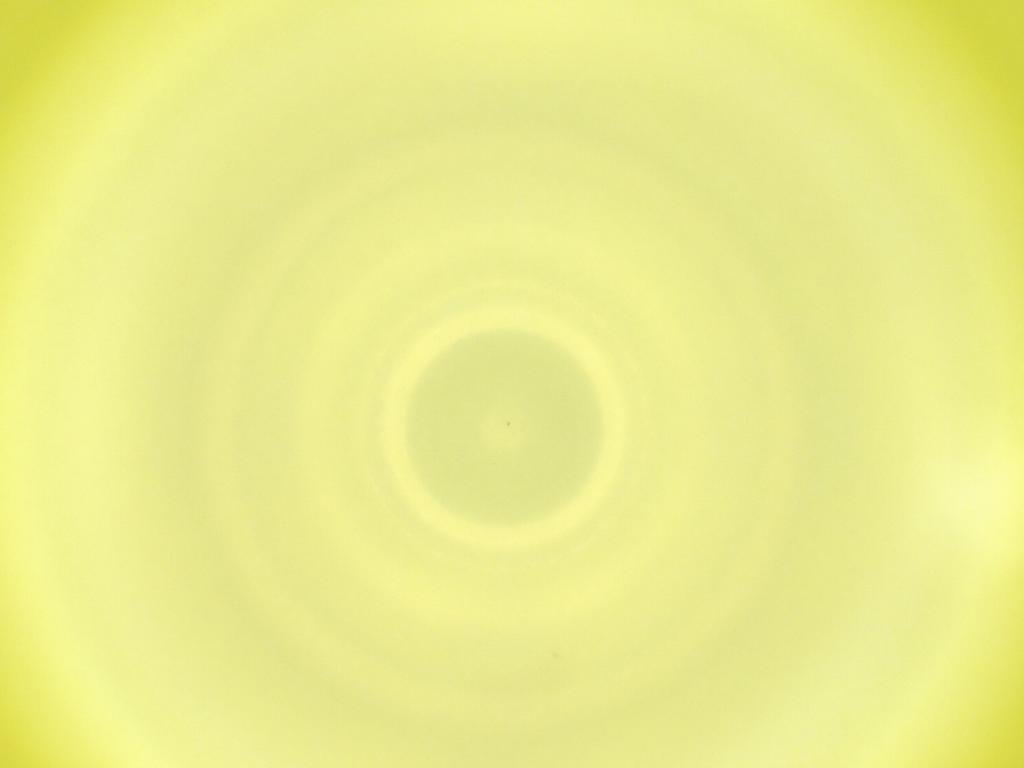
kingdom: Animalia
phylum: Arthropoda
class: Insecta
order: Diptera
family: Cecidomyiidae
